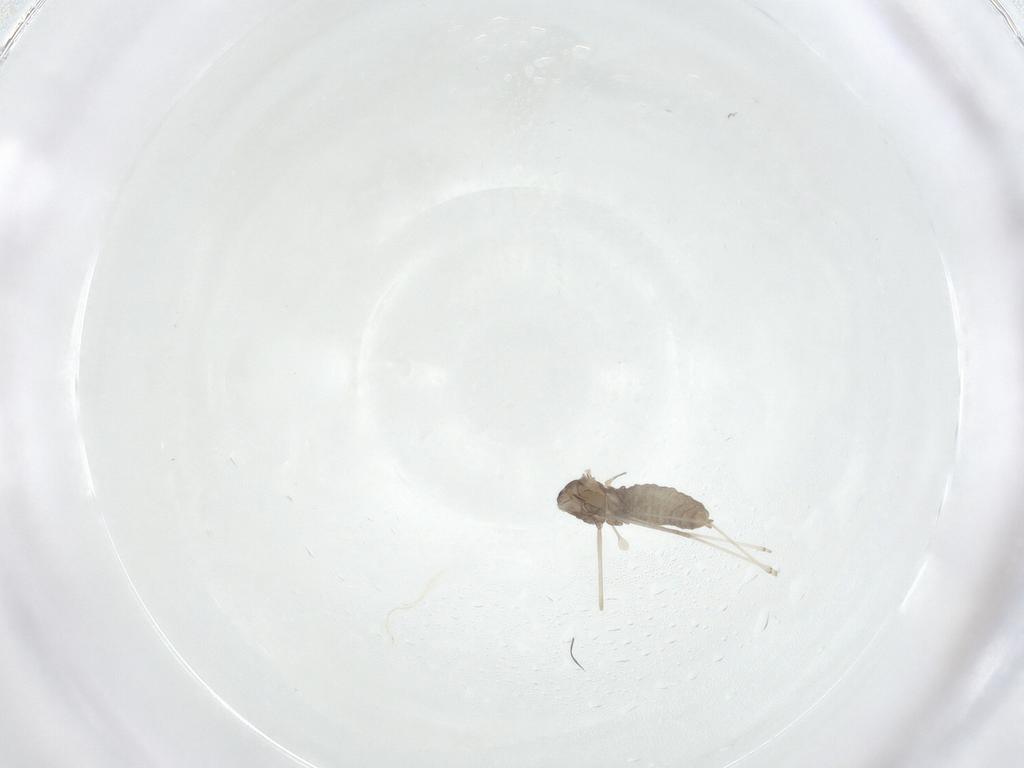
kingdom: Animalia
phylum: Arthropoda
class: Insecta
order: Diptera
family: Cecidomyiidae
